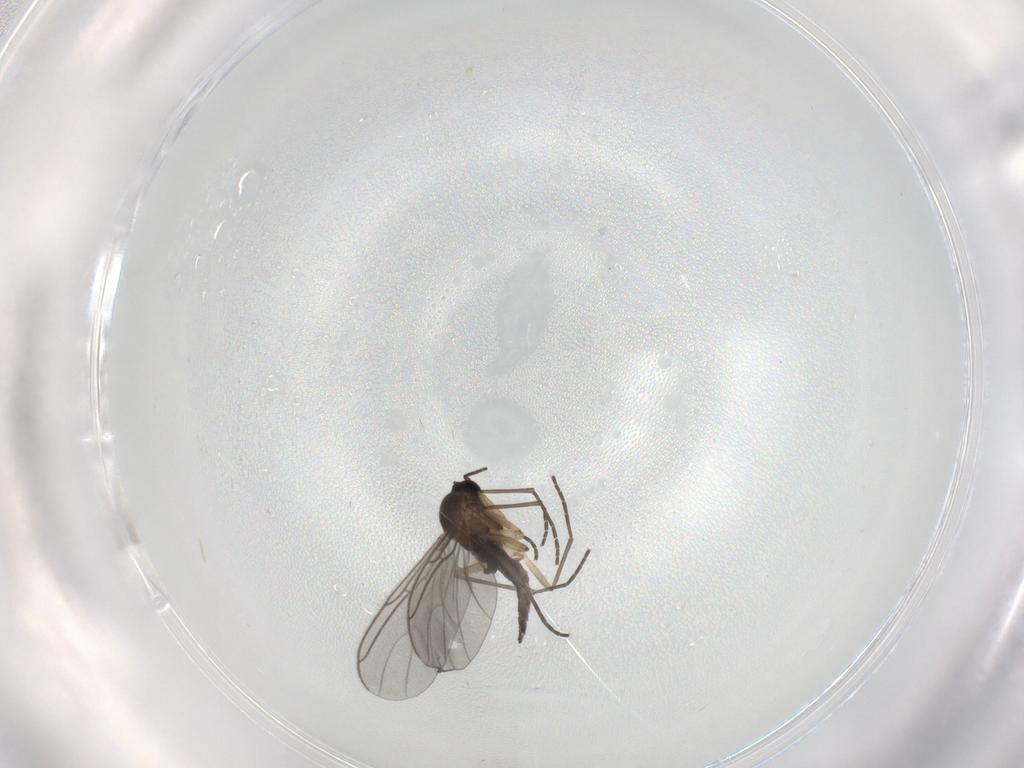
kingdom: Animalia
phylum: Arthropoda
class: Insecta
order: Diptera
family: Sciaridae
